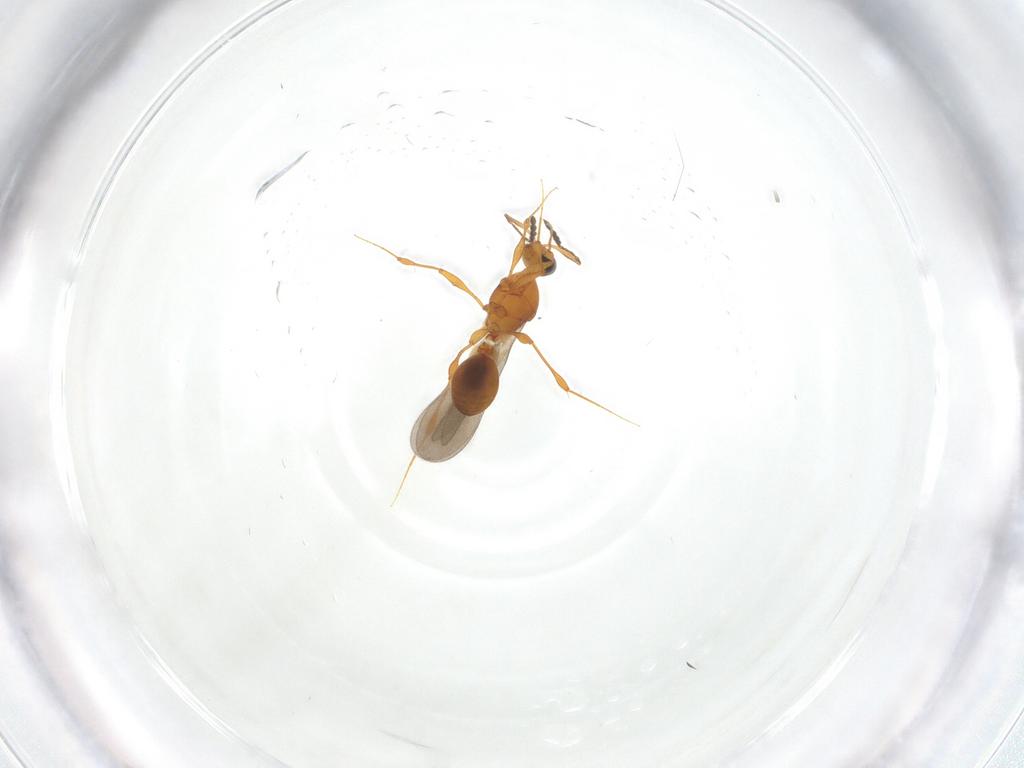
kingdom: Animalia
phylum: Arthropoda
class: Insecta
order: Hymenoptera
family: Platygastridae
